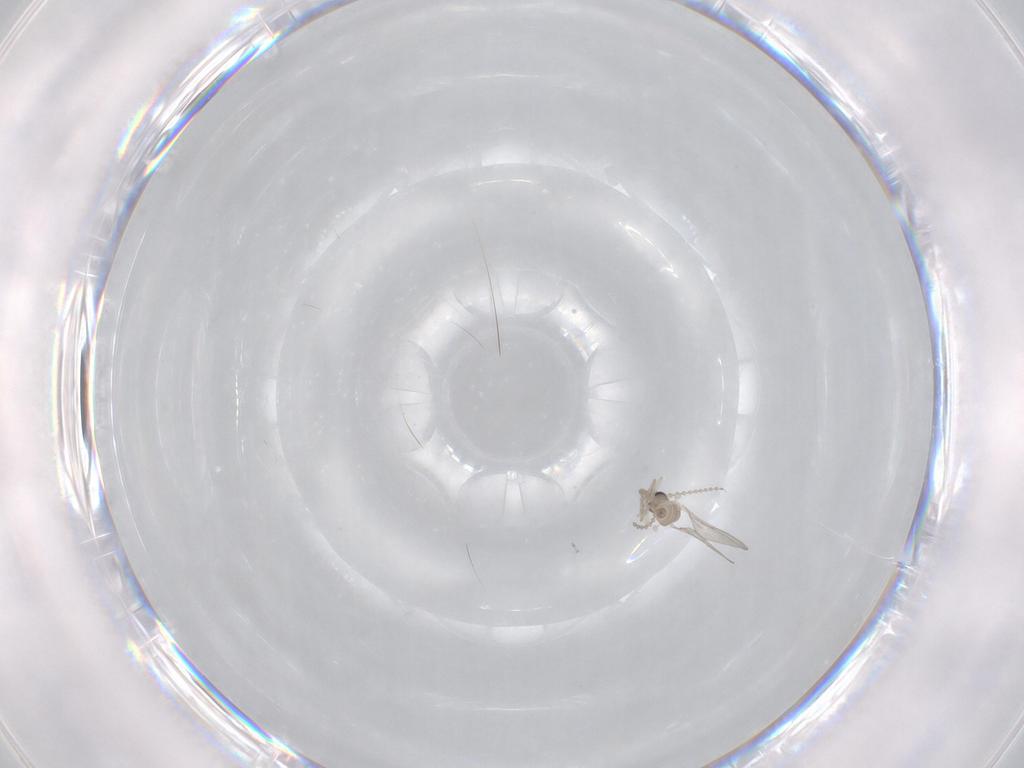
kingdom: Animalia
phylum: Arthropoda
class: Insecta
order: Diptera
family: Cecidomyiidae
